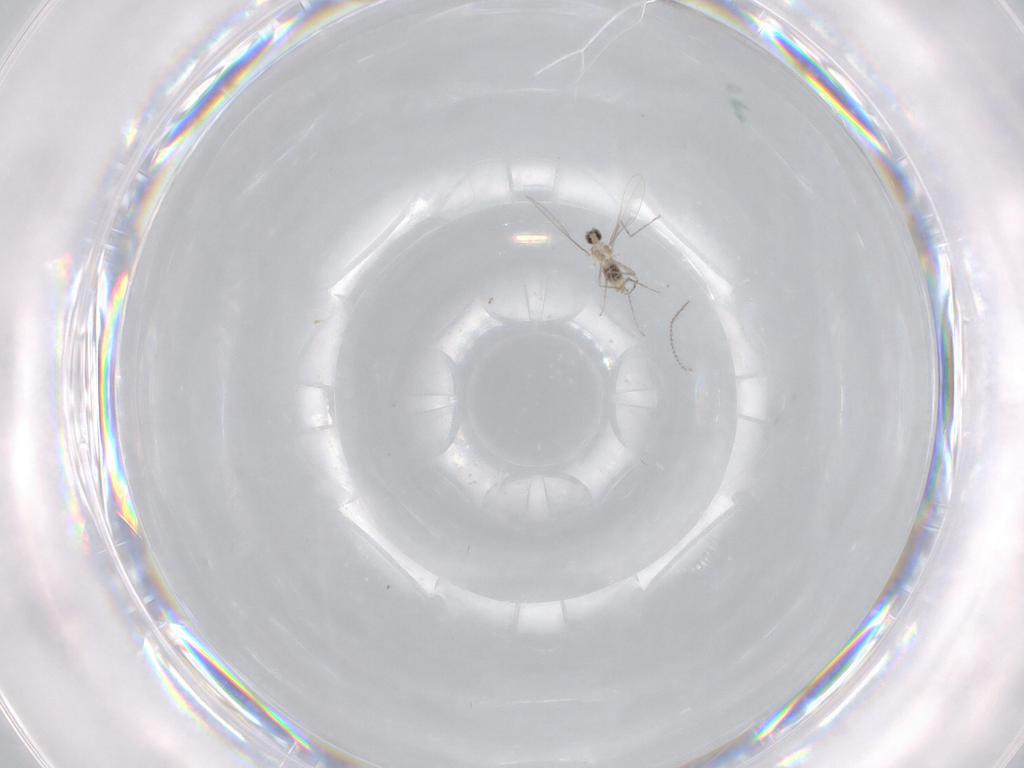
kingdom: Animalia
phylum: Arthropoda
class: Insecta
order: Diptera
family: Cecidomyiidae
